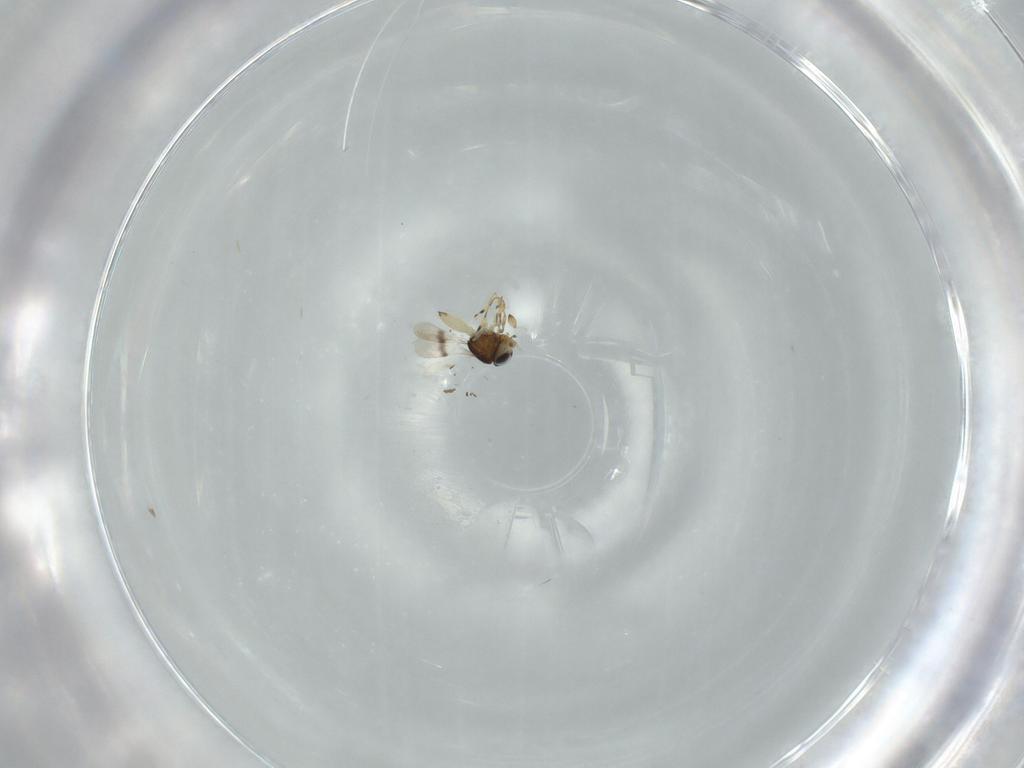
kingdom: Animalia
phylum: Arthropoda
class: Insecta
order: Hymenoptera
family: Scelionidae
